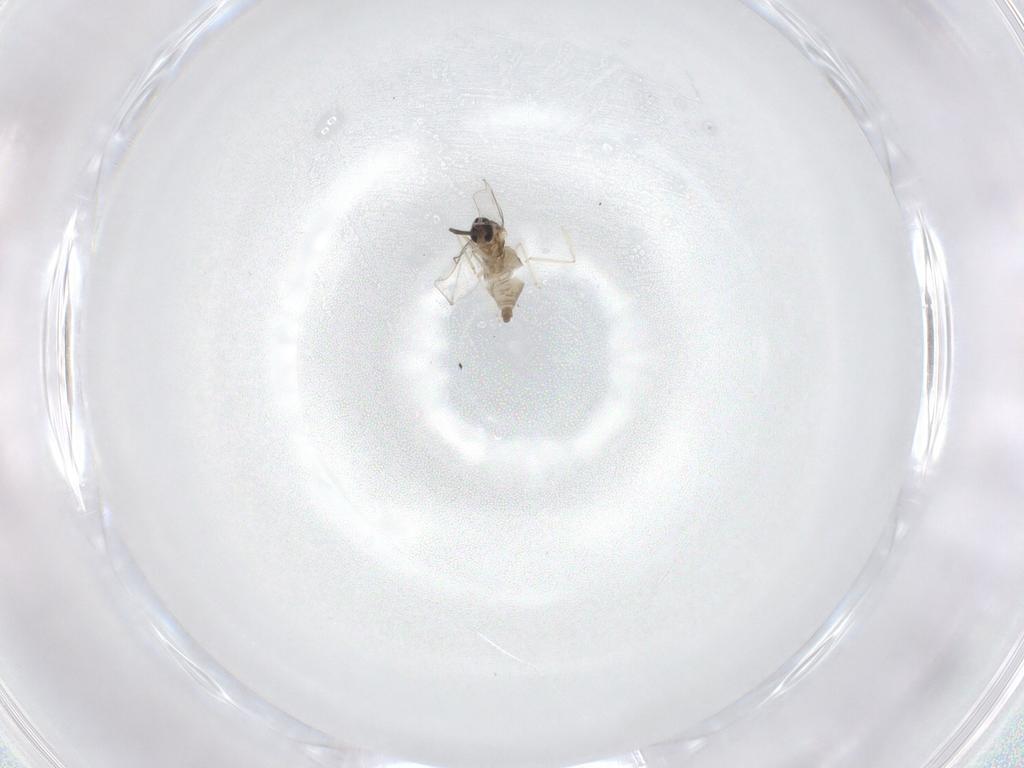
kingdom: Animalia
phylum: Arthropoda
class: Insecta
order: Diptera
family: Cecidomyiidae
